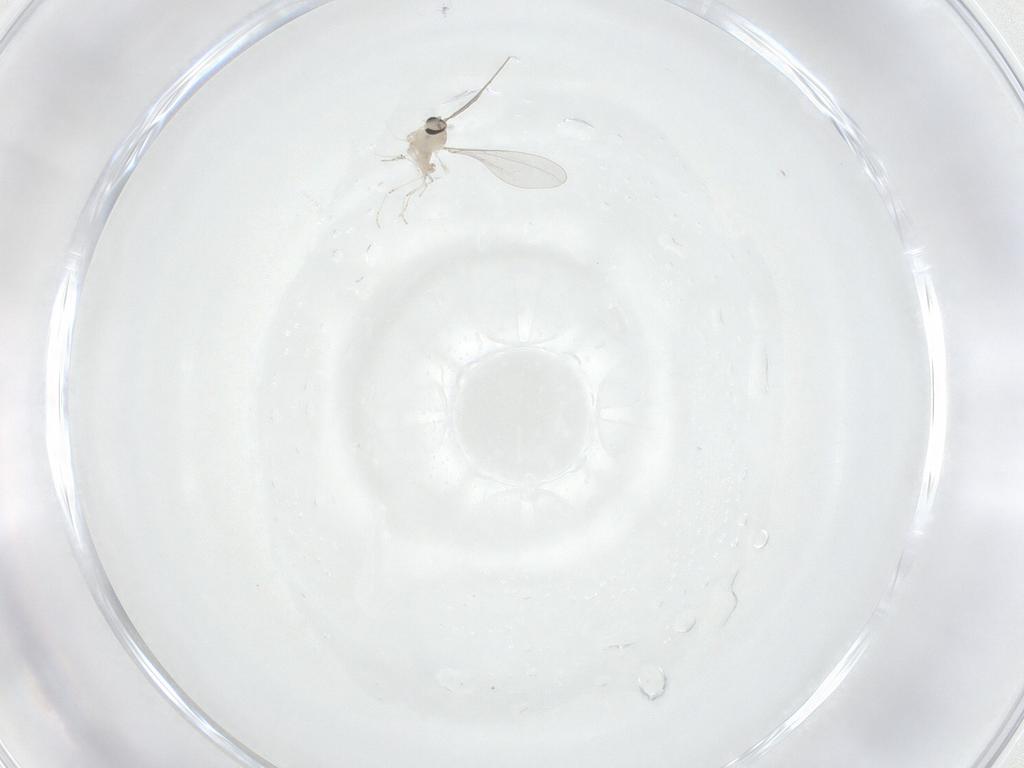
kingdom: Animalia
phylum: Arthropoda
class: Insecta
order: Diptera
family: Cecidomyiidae
